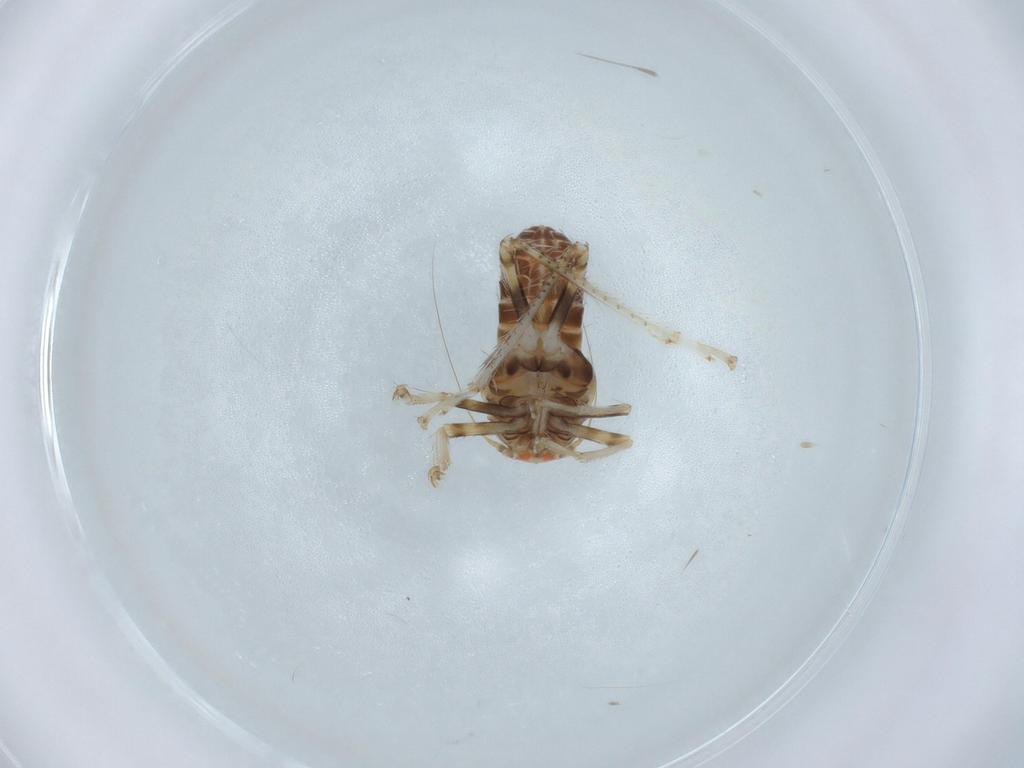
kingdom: Animalia
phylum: Arthropoda
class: Insecta
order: Hemiptera
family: Cicadellidae
